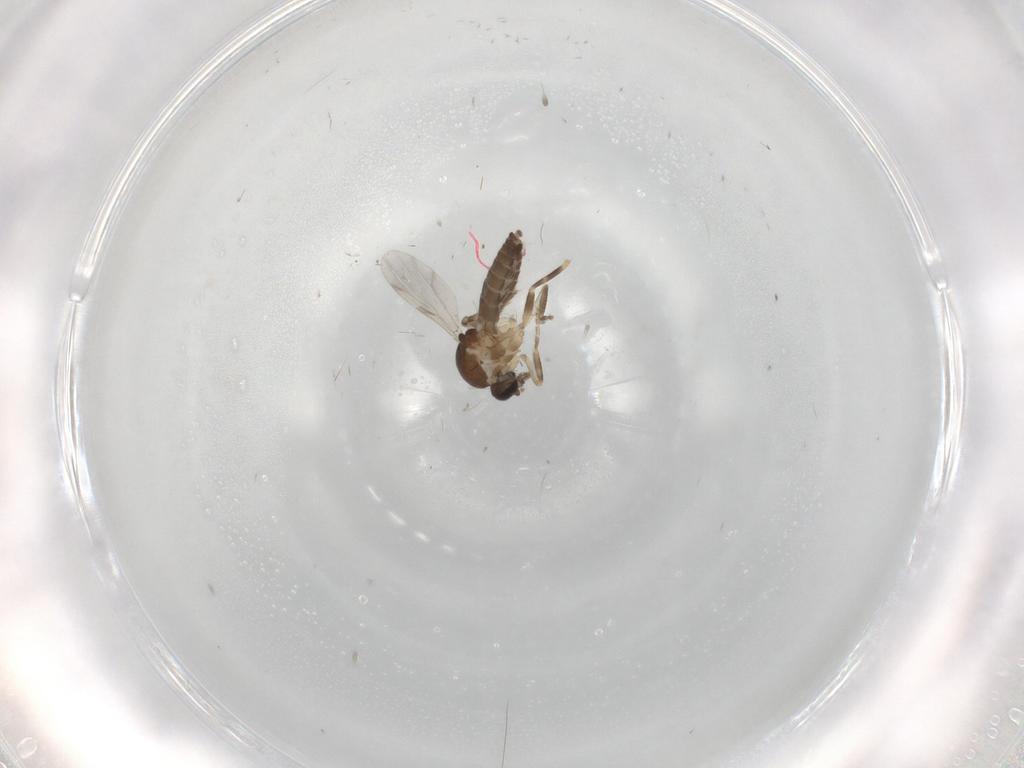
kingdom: Animalia
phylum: Arthropoda
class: Insecta
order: Diptera
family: Ceratopogonidae
